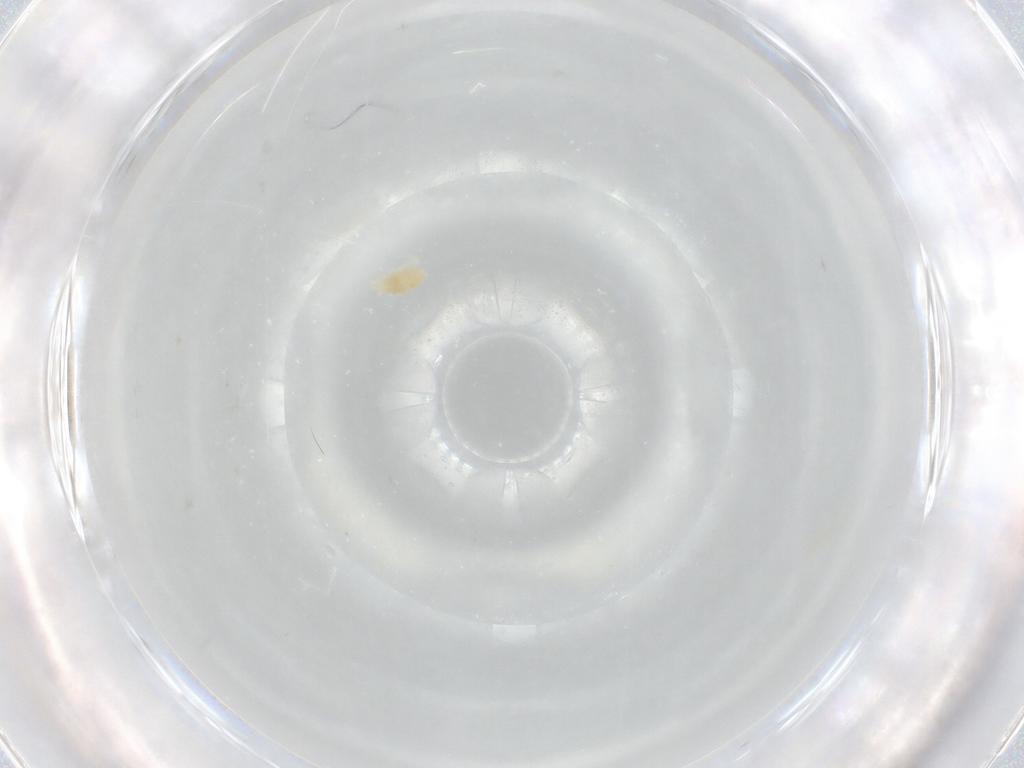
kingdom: Animalia
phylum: Arthropoda
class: Arachnida
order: Trombidiformes
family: Eupodidae
